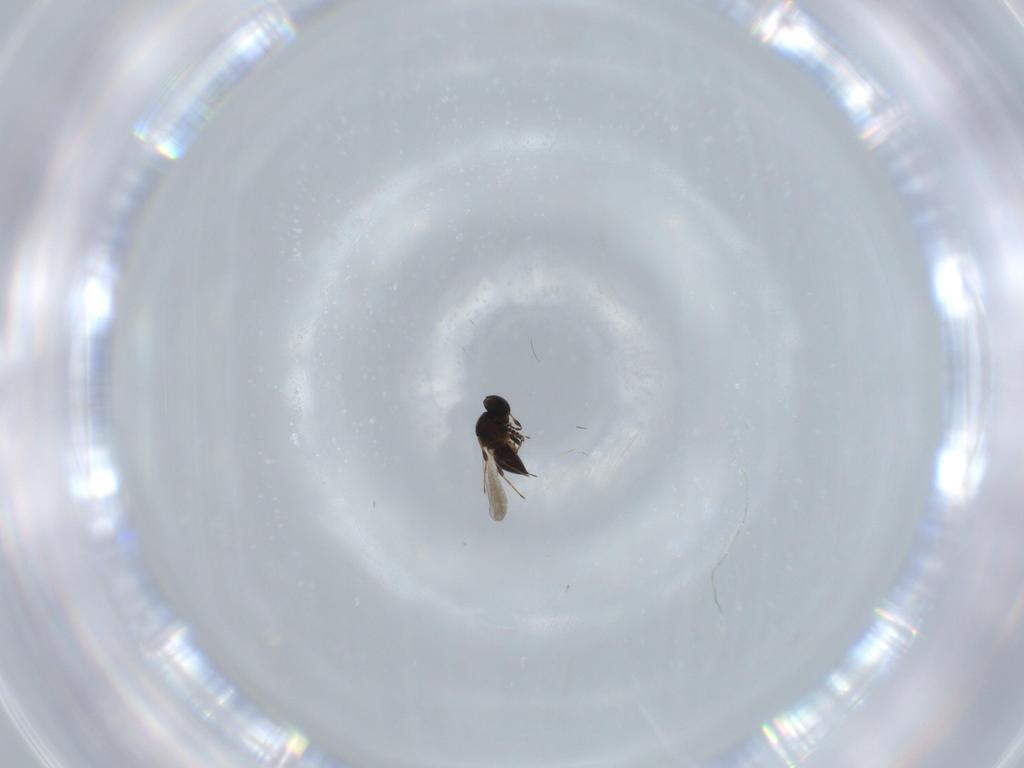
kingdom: Animalia
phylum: Arthropoda
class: Insecta
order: Hymenoptera
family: Platygastridae
